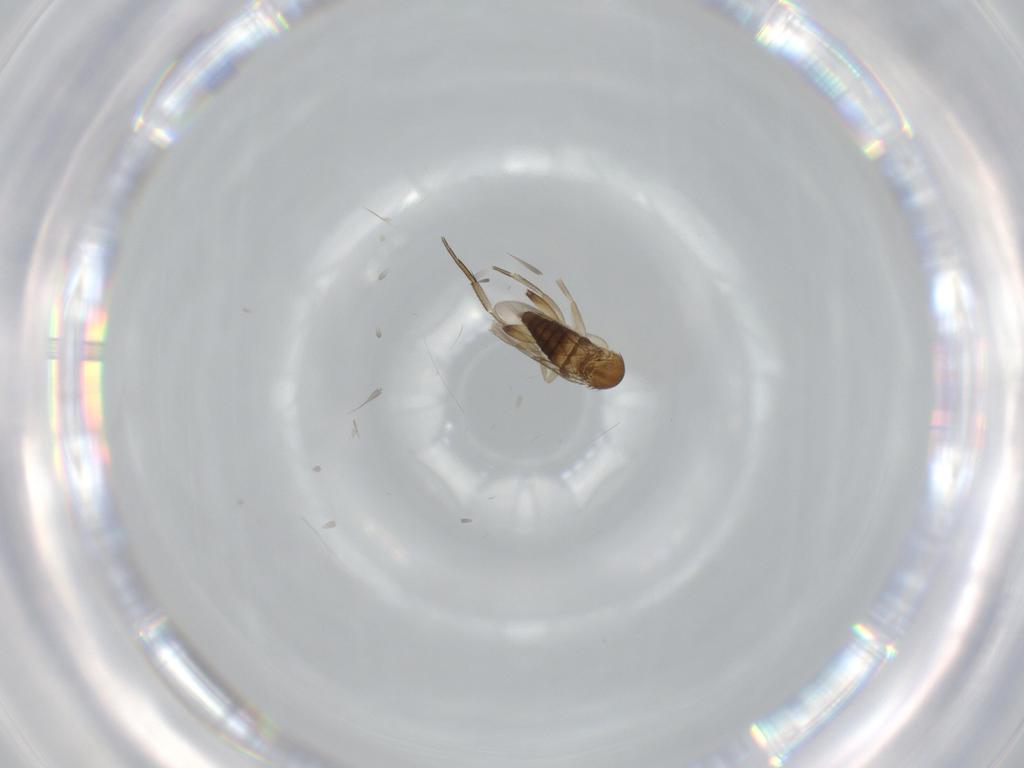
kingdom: Animalia
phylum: Arthropoda
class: Insecta
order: Diptera
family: Phoridae
